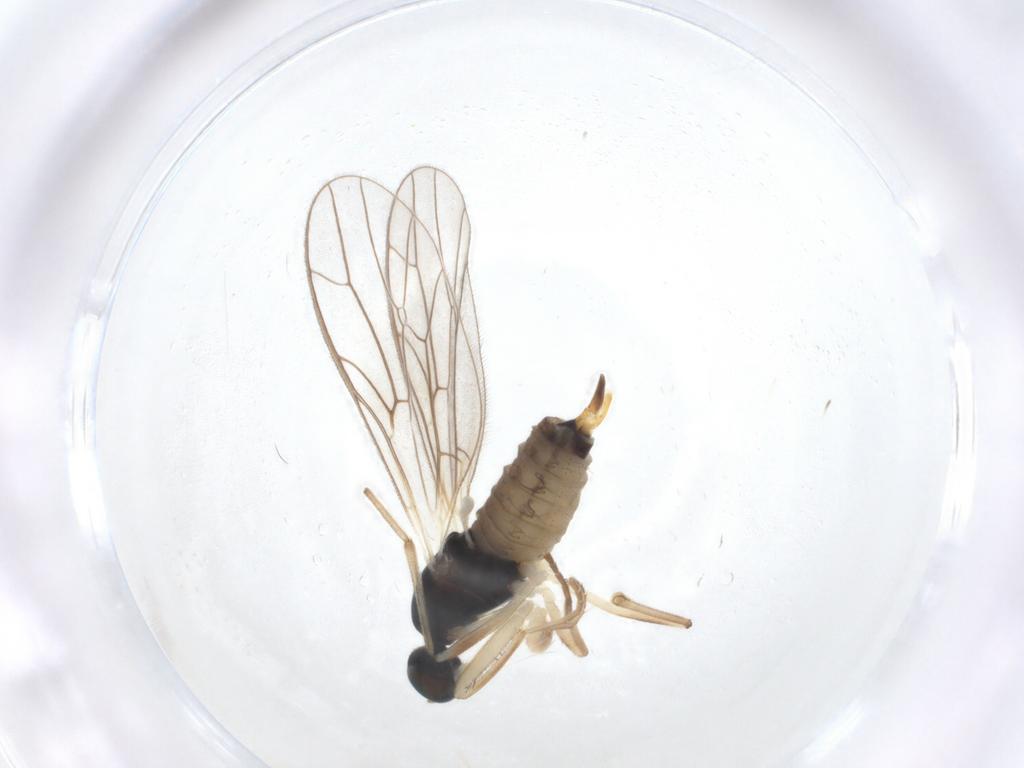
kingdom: Animalia
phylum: Arthropoda
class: Insecta
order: Diptera
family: Empididae
